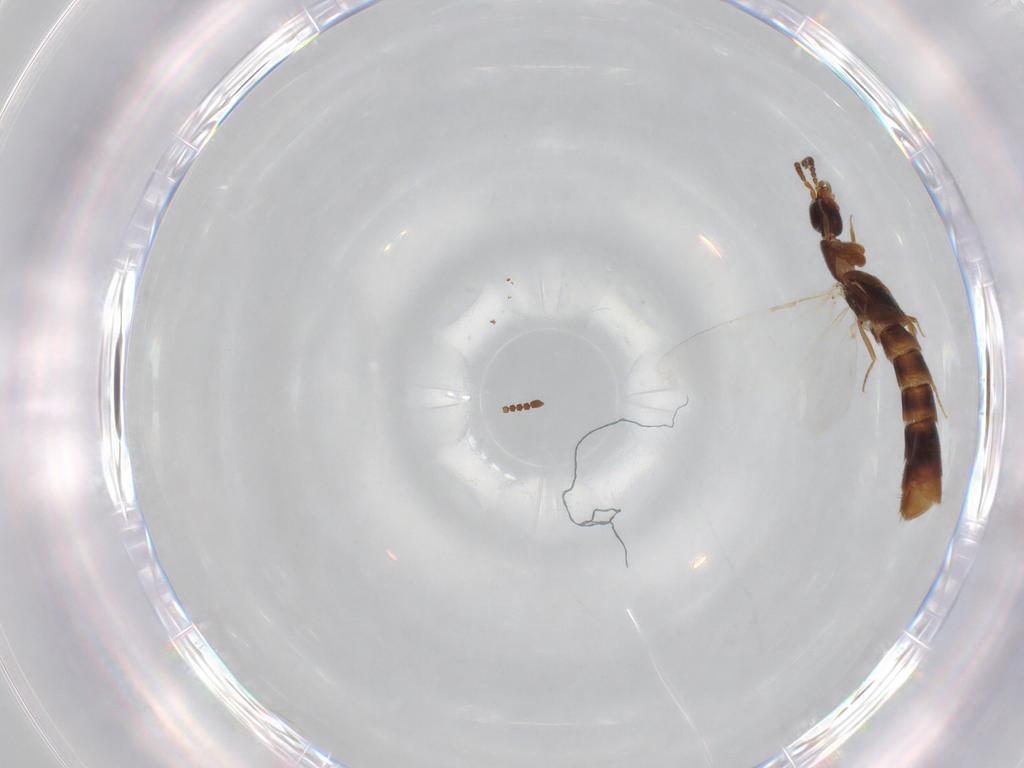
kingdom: Animalia
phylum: Arthropoda
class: Insecta
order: Coleoptera
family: Staphylinidae
